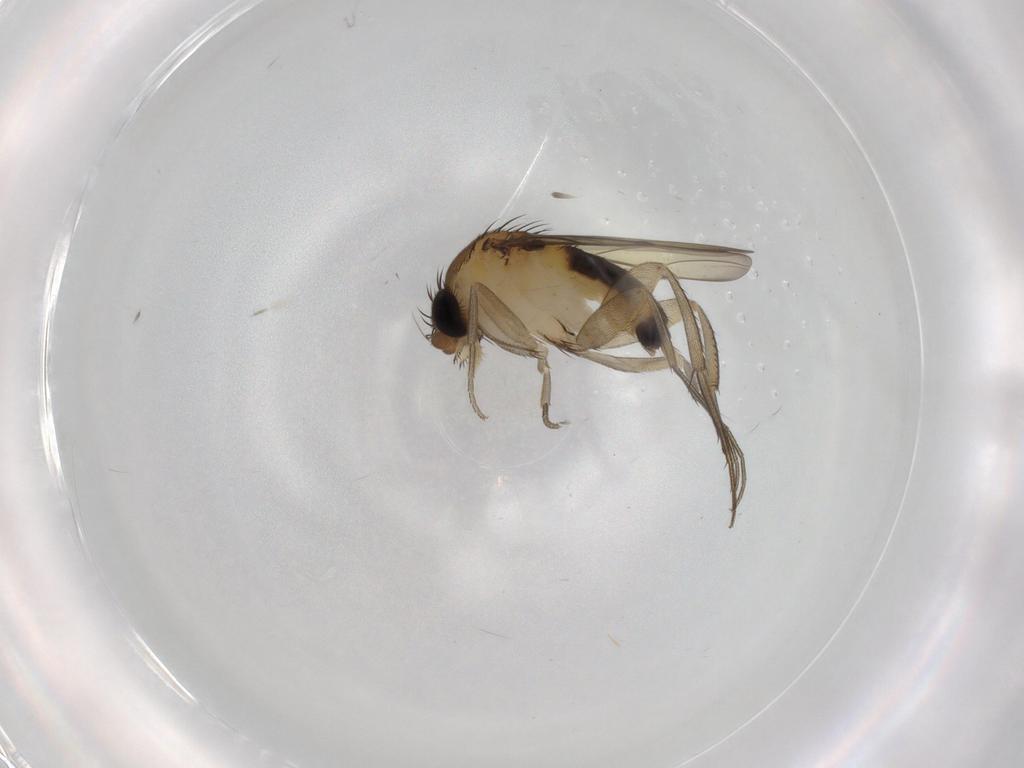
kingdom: Animalia
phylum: Arthropoda
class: Insecta
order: Diptera
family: Phoridae
